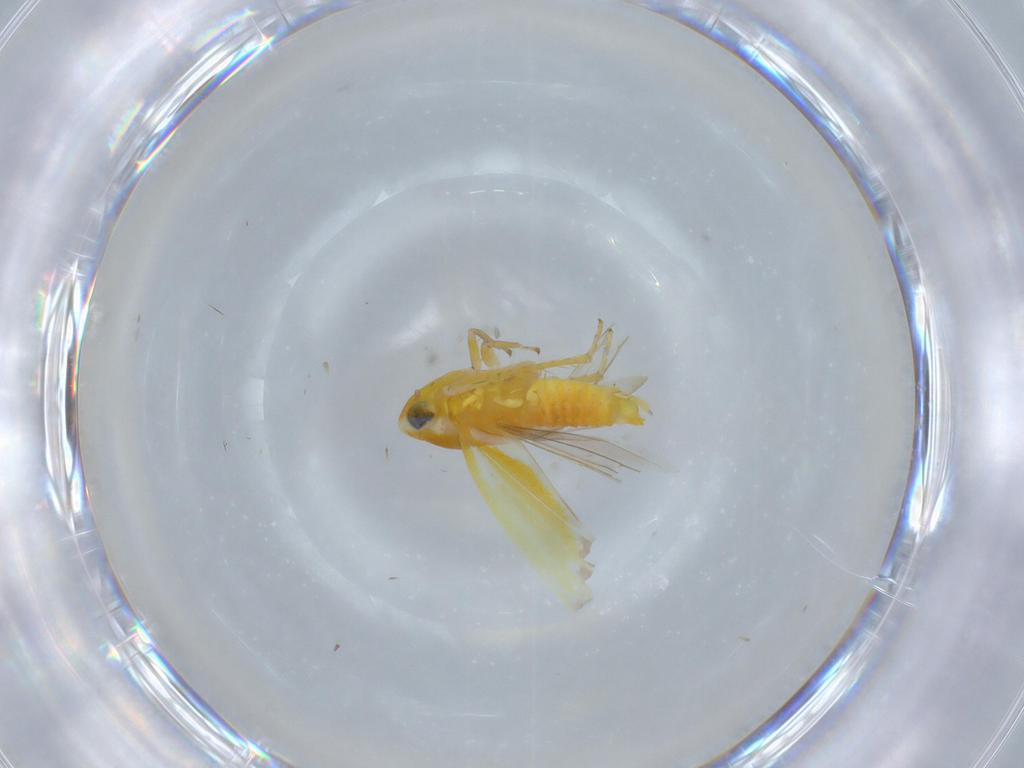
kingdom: Animalia
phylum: Arthropoda
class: Insecta
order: Hemiptera
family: Cicadellidae
